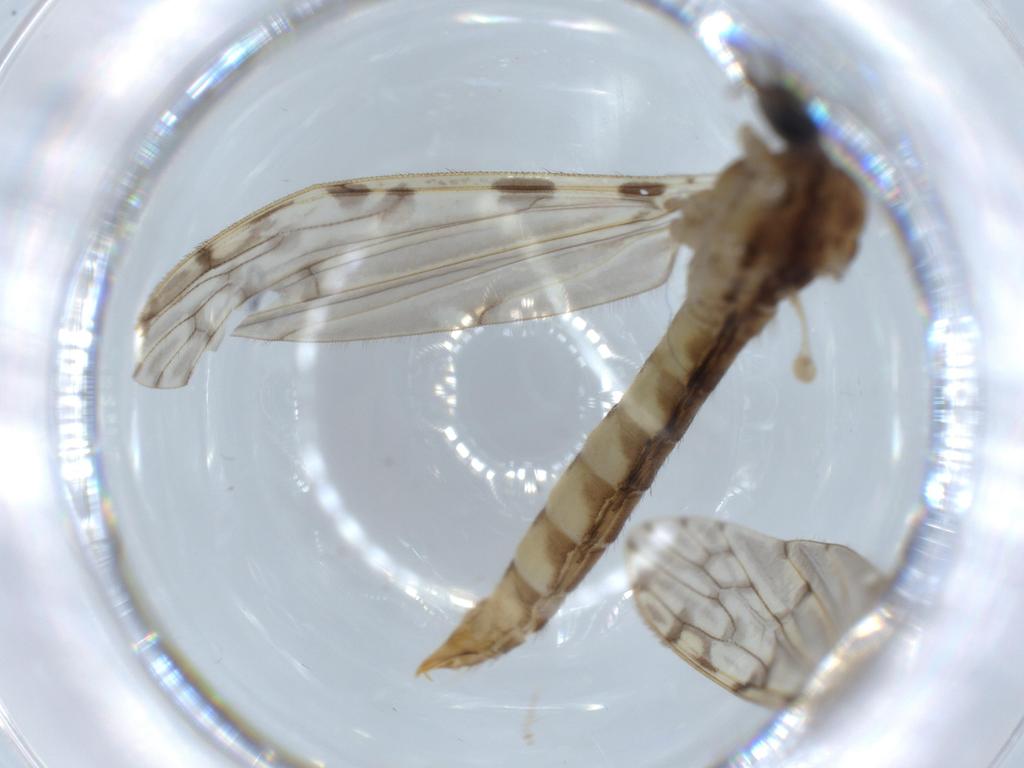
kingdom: Animalia
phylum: Arthropoda
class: Insecta
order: Diptera
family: Limoniidae
